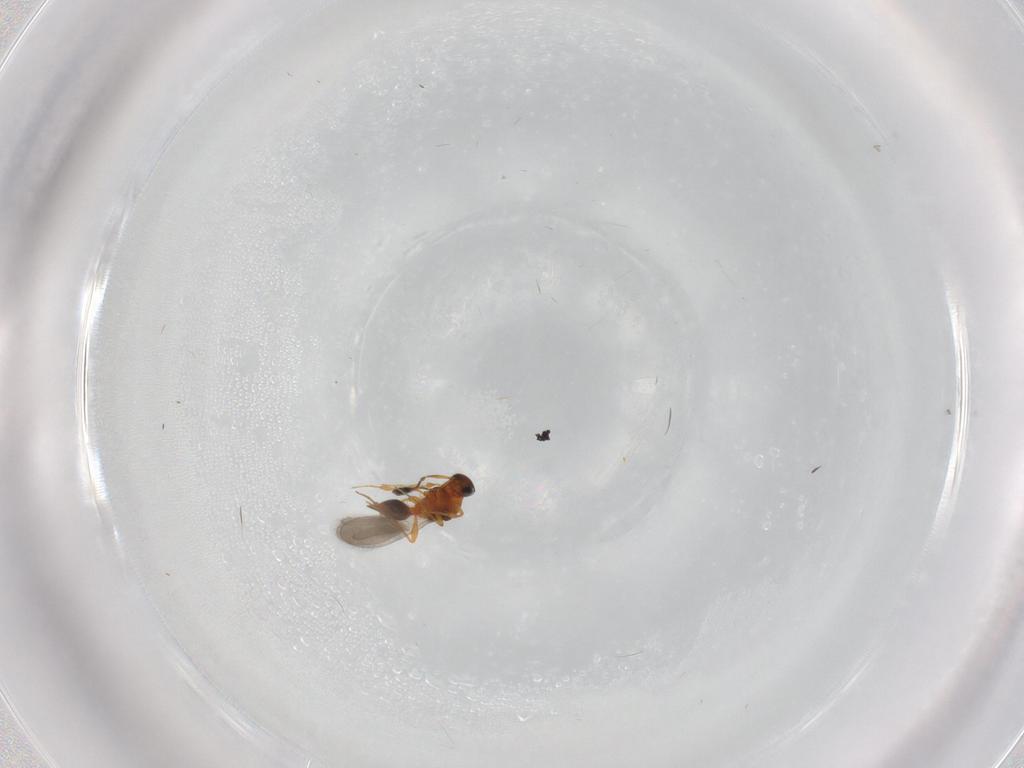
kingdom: Animalia
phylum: Arthropoda
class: Insecta
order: Hymenoptera
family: Platygastridae
